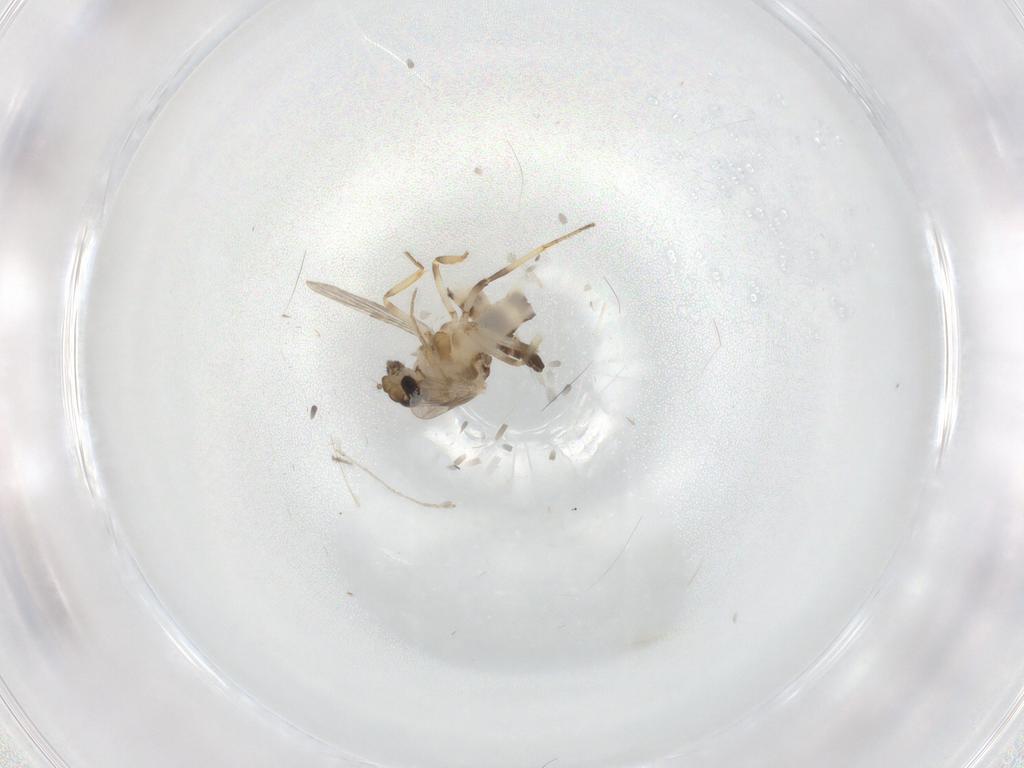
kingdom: Animalia
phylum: Arthropoda
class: Insecta
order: Diptera
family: Ceratopogonidae
